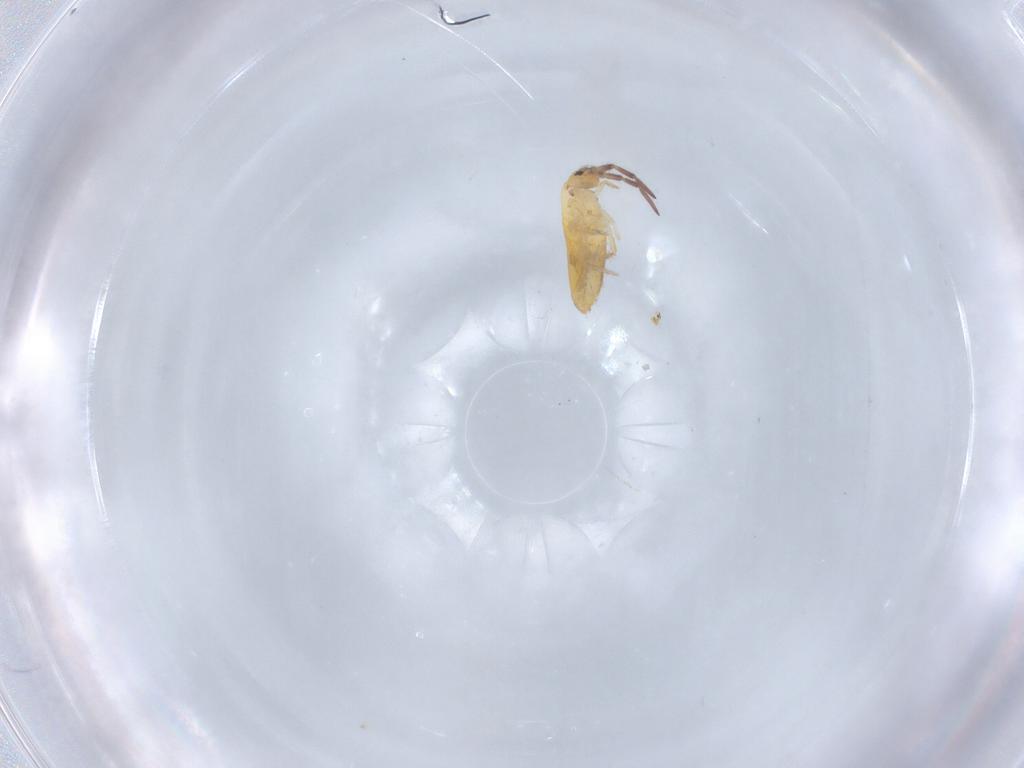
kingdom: Animalia
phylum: Arthropoda
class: Collembola
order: Entomobryomorpha
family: Entomobryidae
